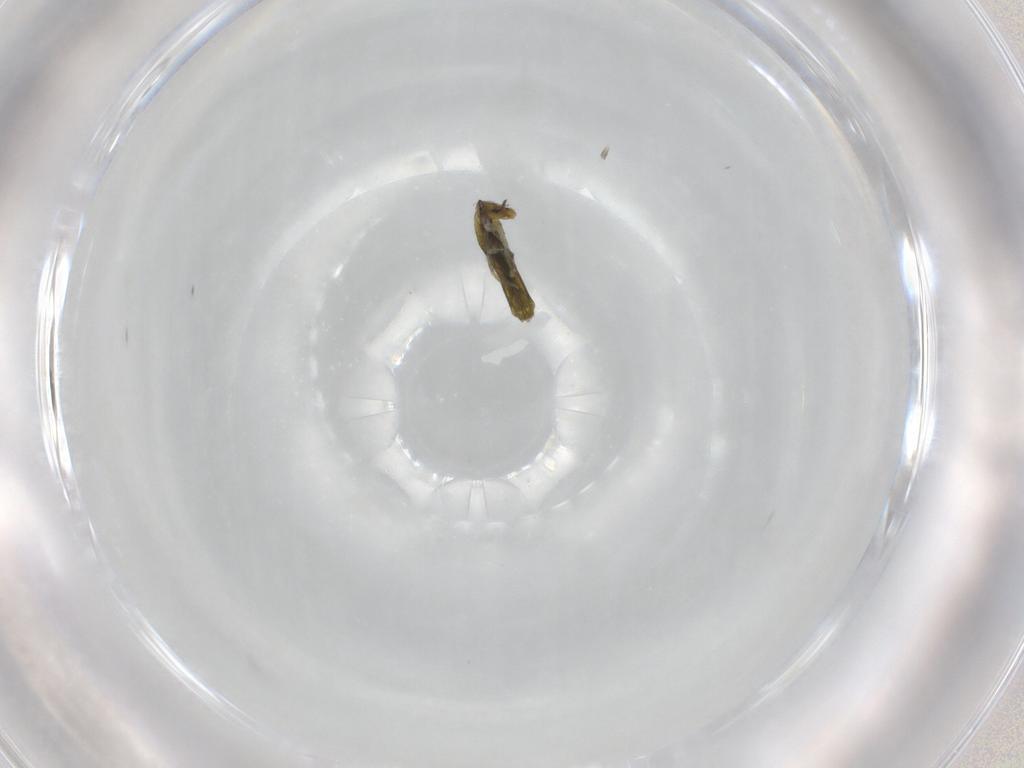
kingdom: Animalia
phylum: Arthropoda
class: Collembola
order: Entomobryomorpha
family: Entomobryidae
